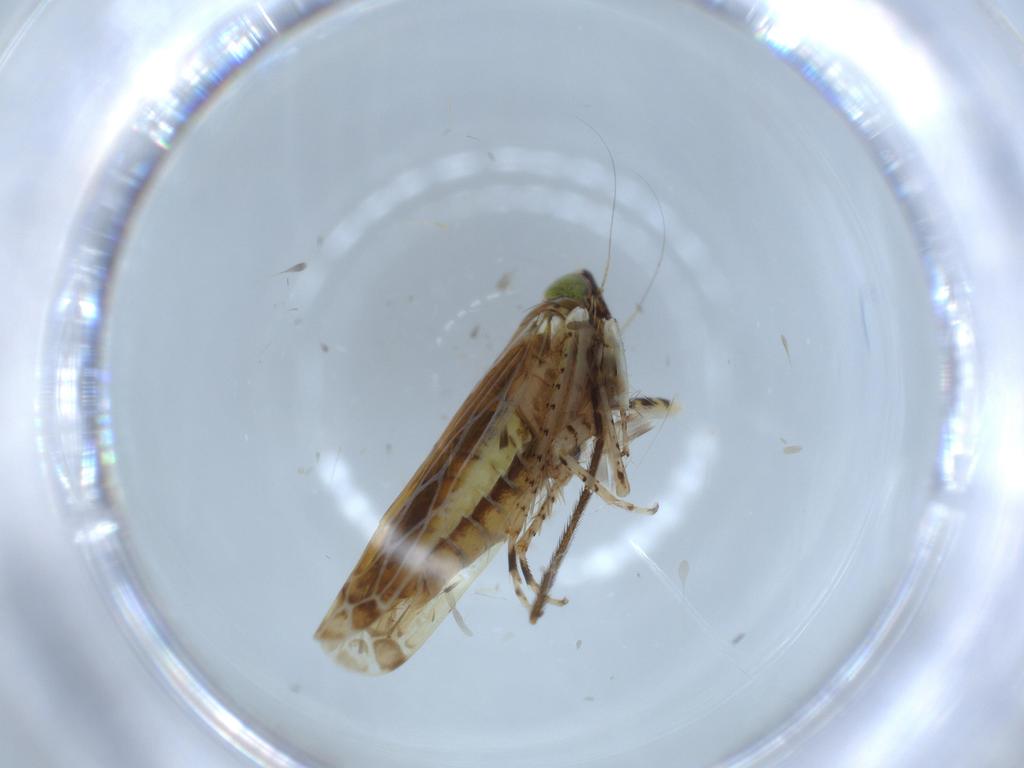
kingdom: Animalia
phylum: Arthropoda
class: Insecta
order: Hemiptera
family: Cicadellidae
